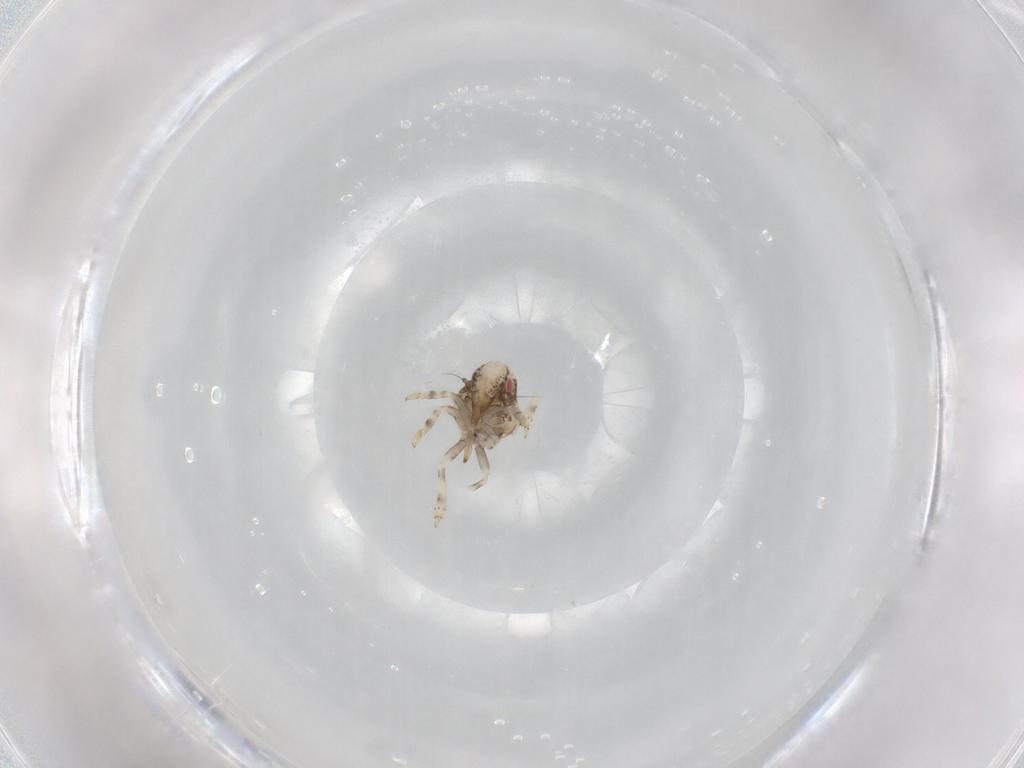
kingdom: Animalia
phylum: Arthropoda
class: Insecta
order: Hemiptera
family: Acanaloniidae
